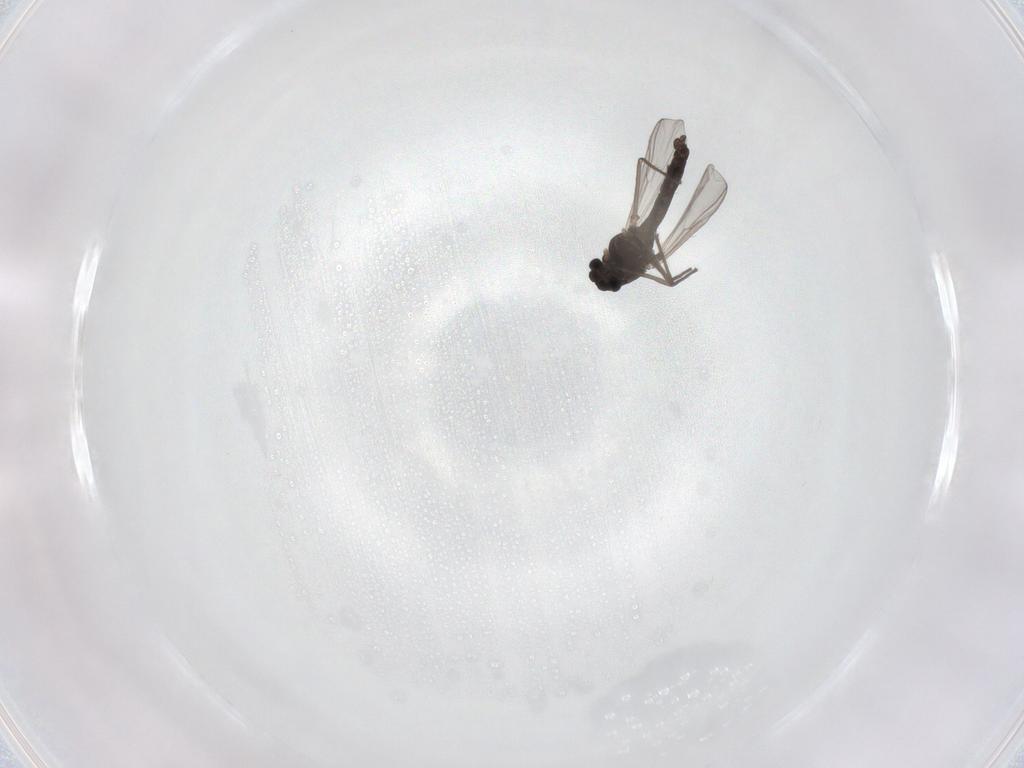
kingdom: Animalia
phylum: Arthropoda
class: Insecta
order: Diptera
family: Chironomidae
